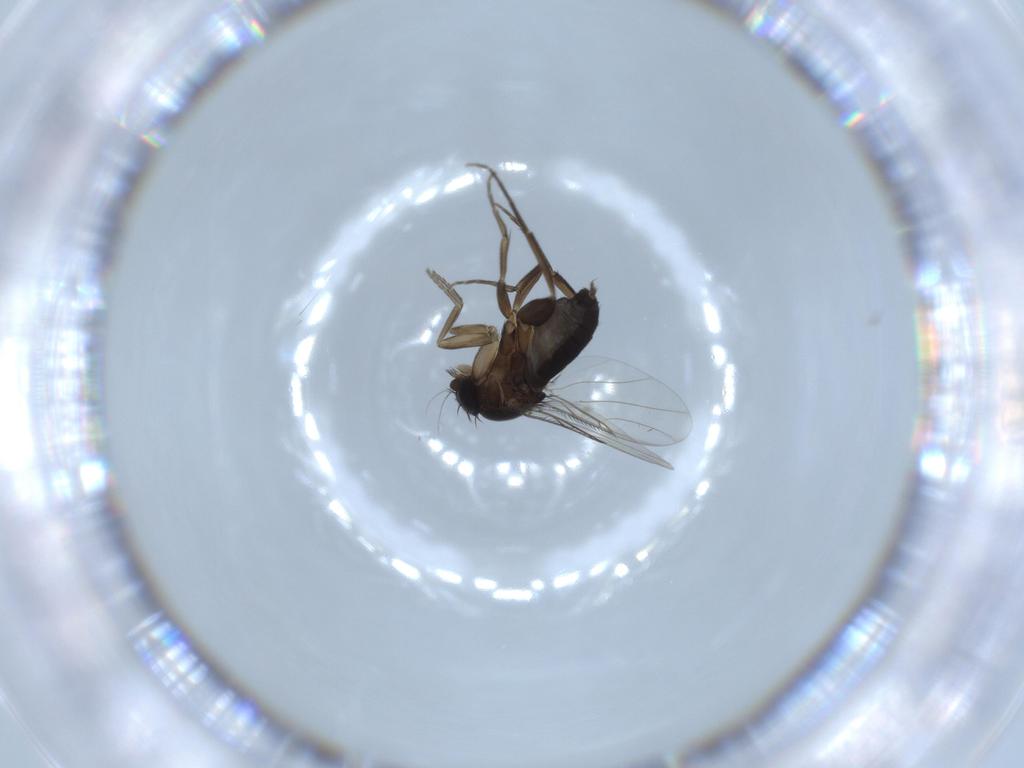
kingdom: Animalia
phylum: Arthropoda
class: Insecta
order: Diptera
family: Phoridae
